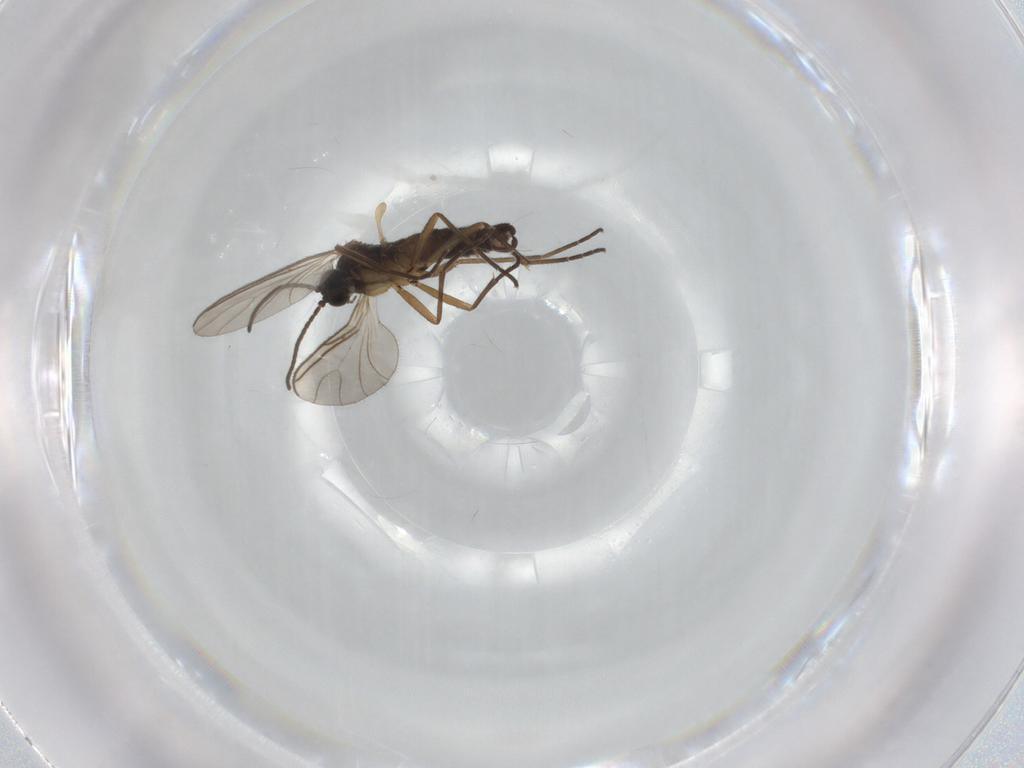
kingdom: Animalia
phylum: Arthropoda
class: Insecta
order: Diptera
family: Sciaridae
